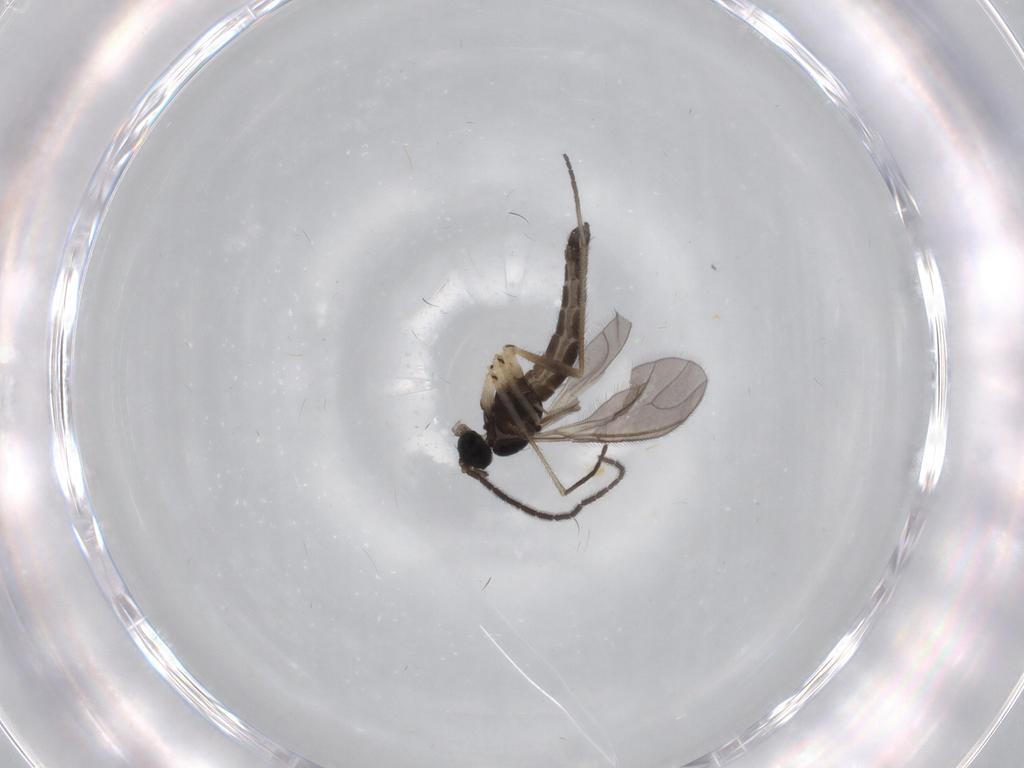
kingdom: Animalia
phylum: Arthropoda
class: Insecta
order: Diptera
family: Sciaridae
